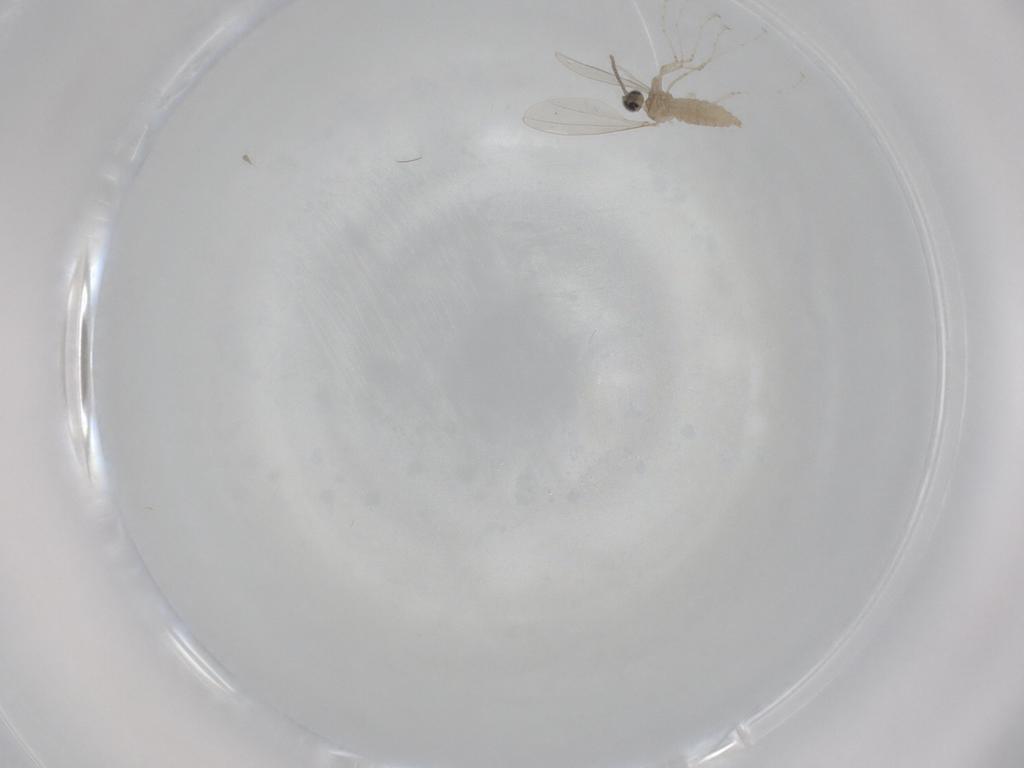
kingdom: Animalia
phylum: Arthropoda
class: Insecta
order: Diptera
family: Cecidomyiidae
